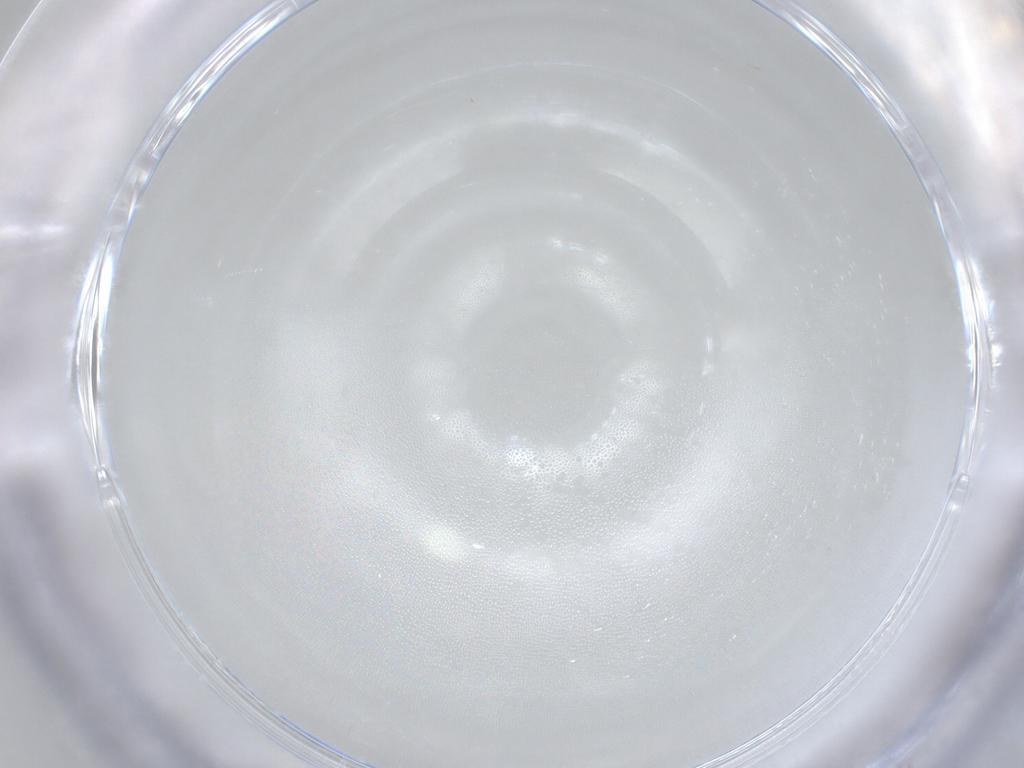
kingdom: Animalia
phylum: Arthropoda
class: Arachnida
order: Mesostigmata
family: Phytoseiidae
